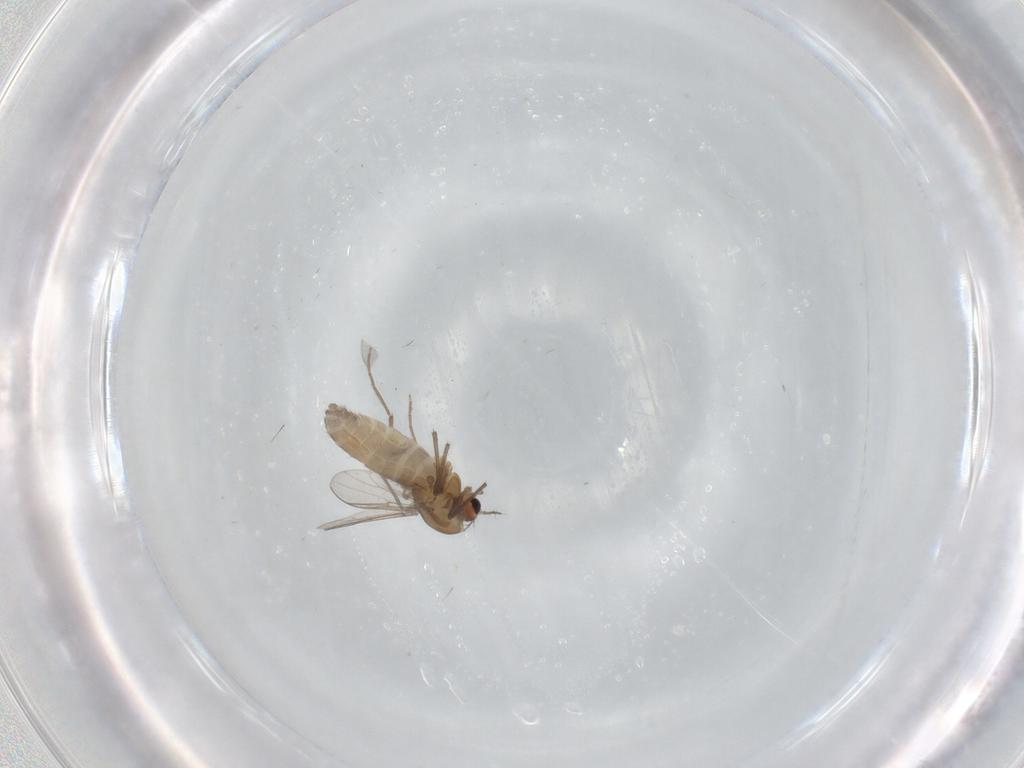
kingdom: Animalia
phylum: Arthropoda
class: Insecta
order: Diptera
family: Chironomidae
